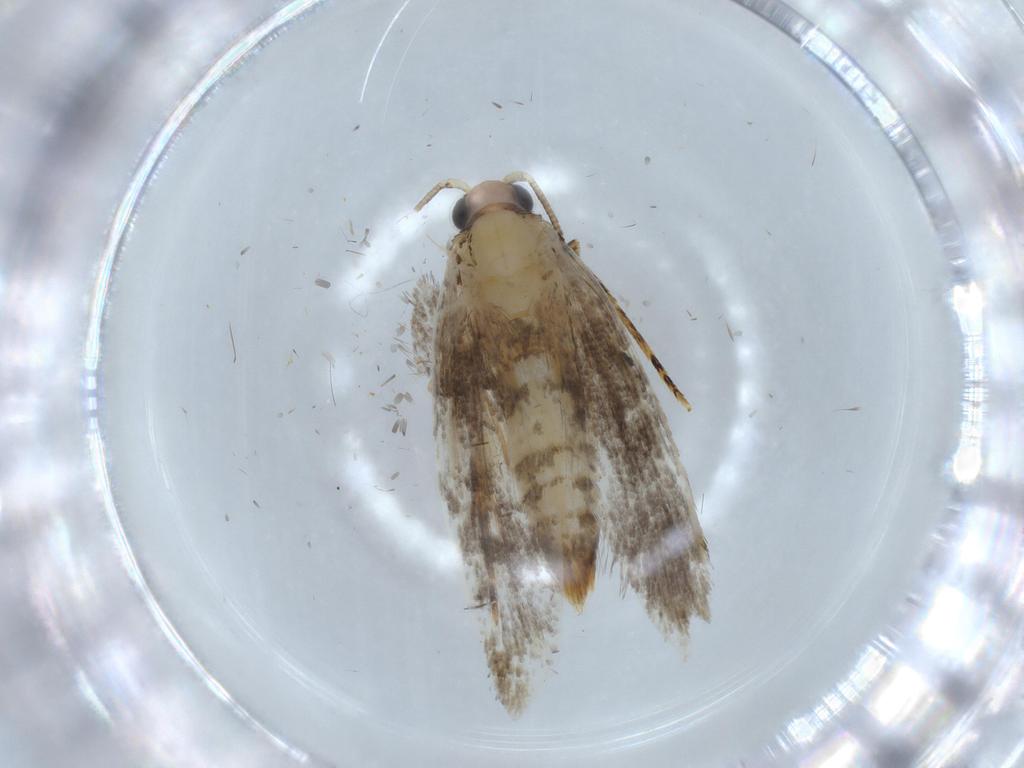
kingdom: Animalia
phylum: Arthropoda
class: Insecta
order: Lepidoptera
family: Tineidae
